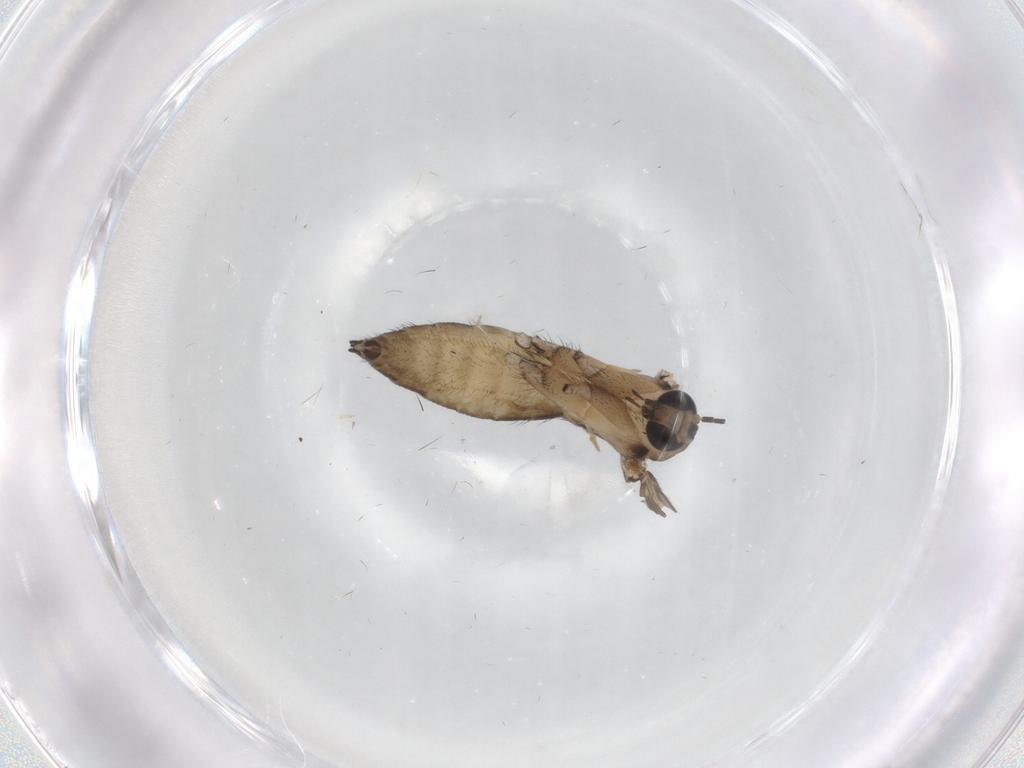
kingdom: Animalia
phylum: Arthropoda
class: Insecta
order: Diptera
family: Sciaridae
